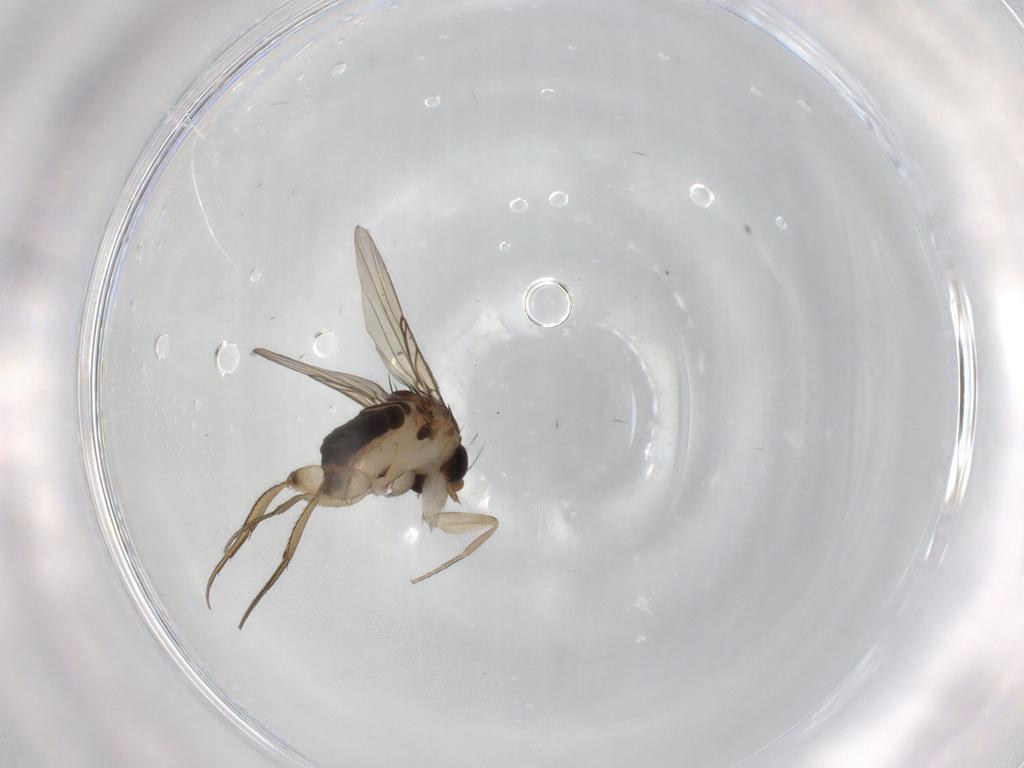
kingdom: Animalia
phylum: Arthropoda
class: Insecta
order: Diptera
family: Phoridae
